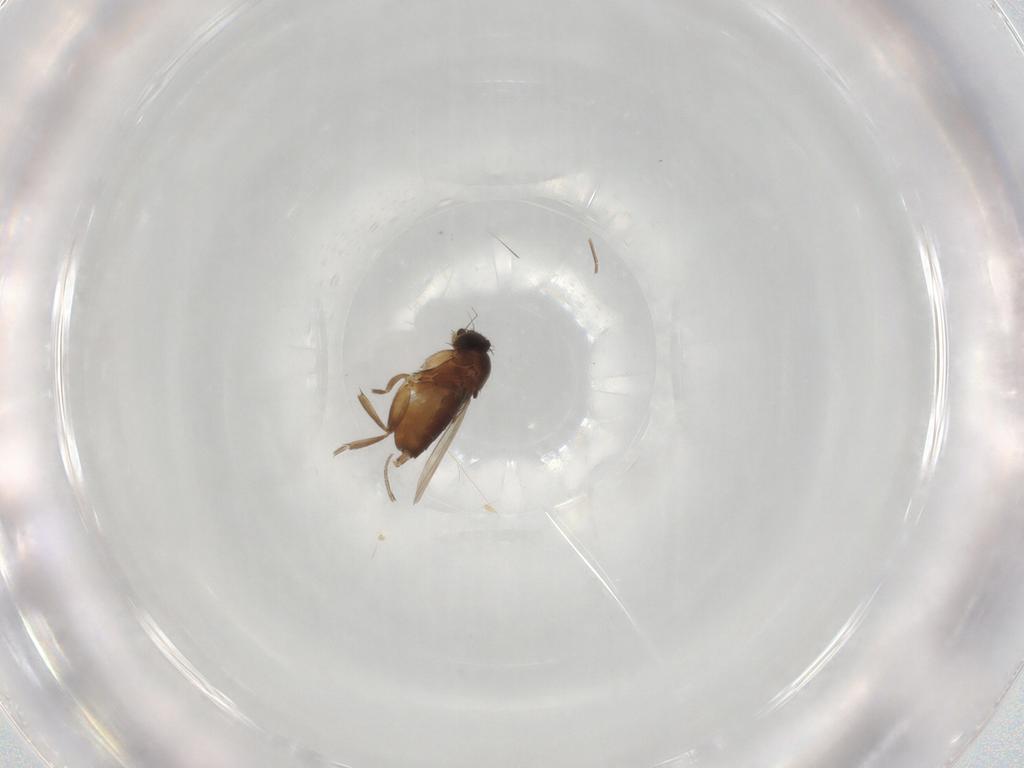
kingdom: Animalia
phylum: Arthropoda
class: Insecta
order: Diptera
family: Phoridae
